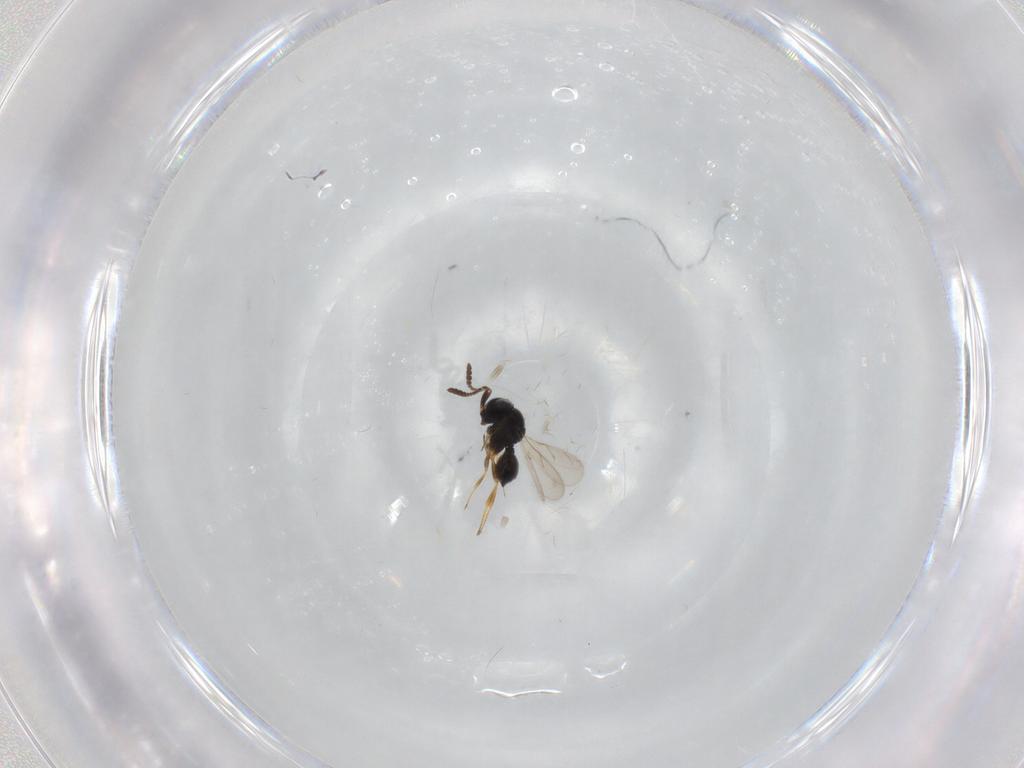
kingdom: Animalia
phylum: Arthropoda
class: Insecta
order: Hymenoptera
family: Scelionidae
